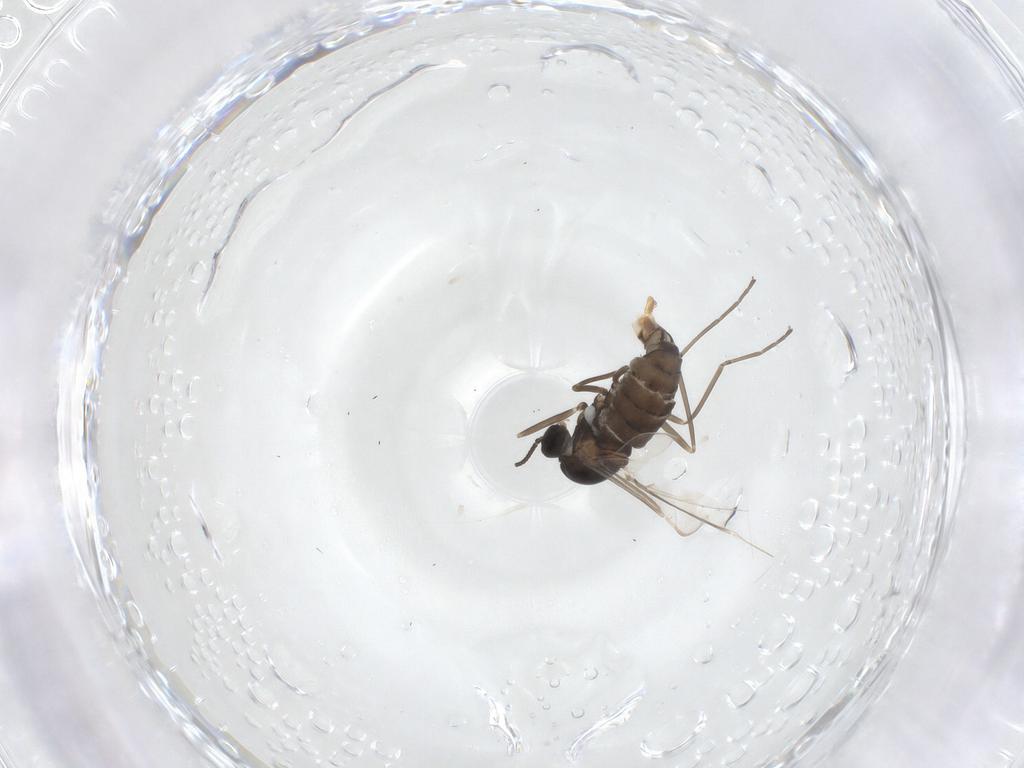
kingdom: Animalia
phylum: Arthropoda
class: Insecta
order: Diptera
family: Cecidomyiidae
